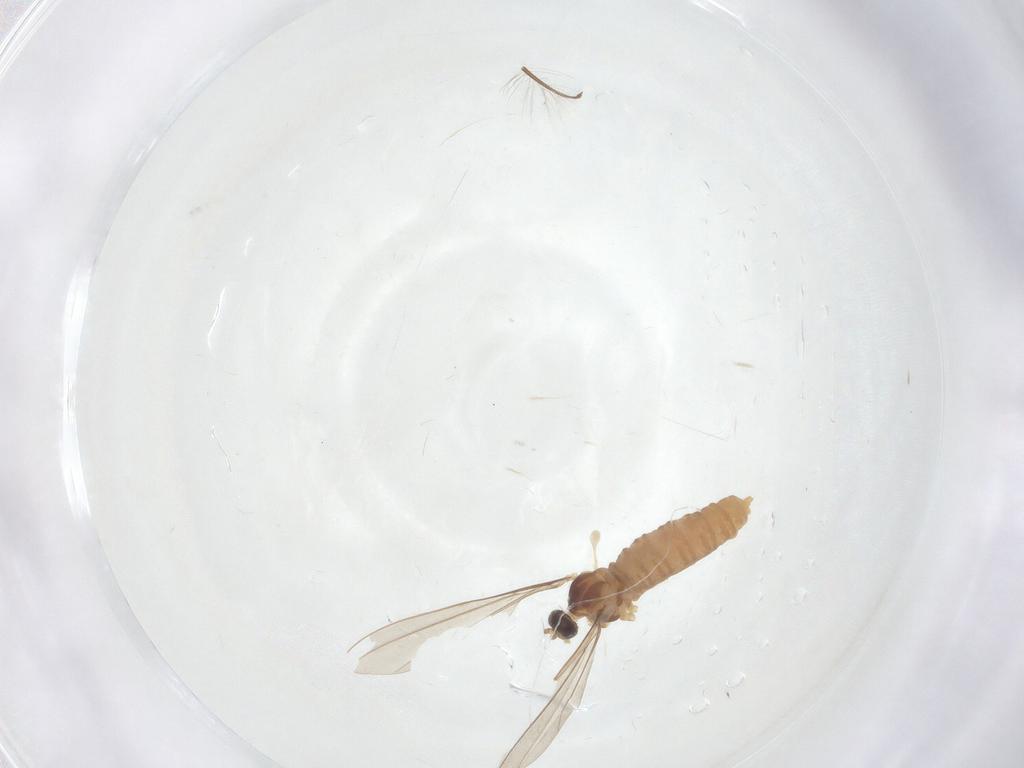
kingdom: Animalia
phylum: Arthropoda
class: Insecta
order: Diptera
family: Cecidomyiidae
